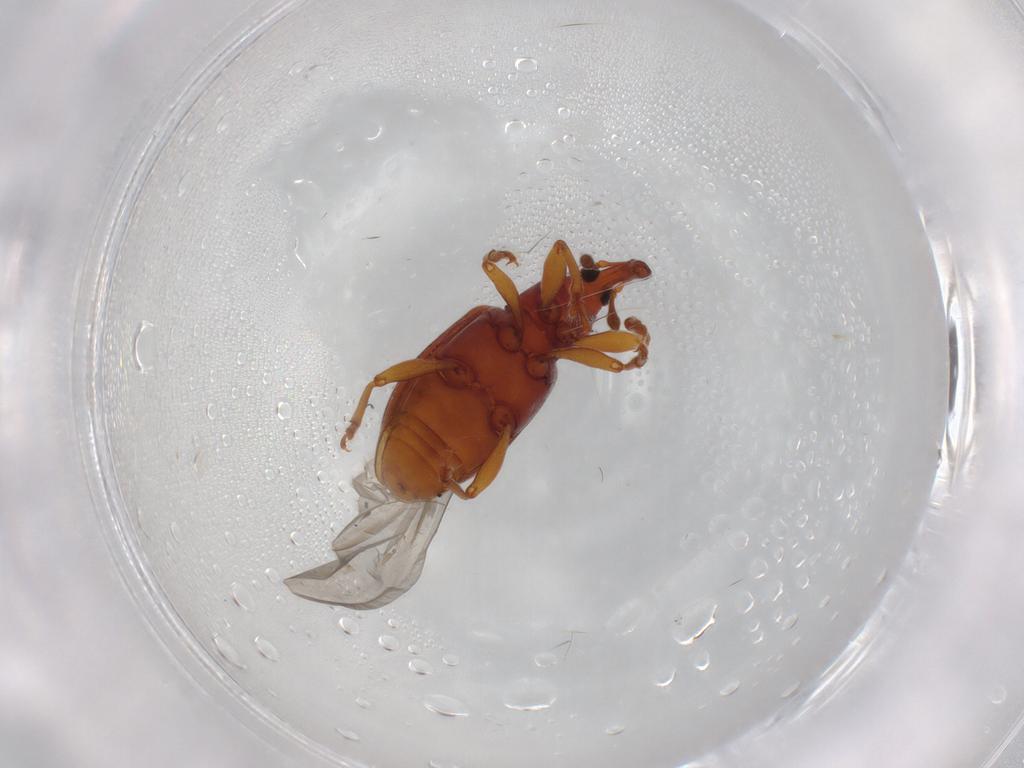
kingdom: Animalia
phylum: Arthropoda
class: Insecta
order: Coleoptera
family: Curculionidae
